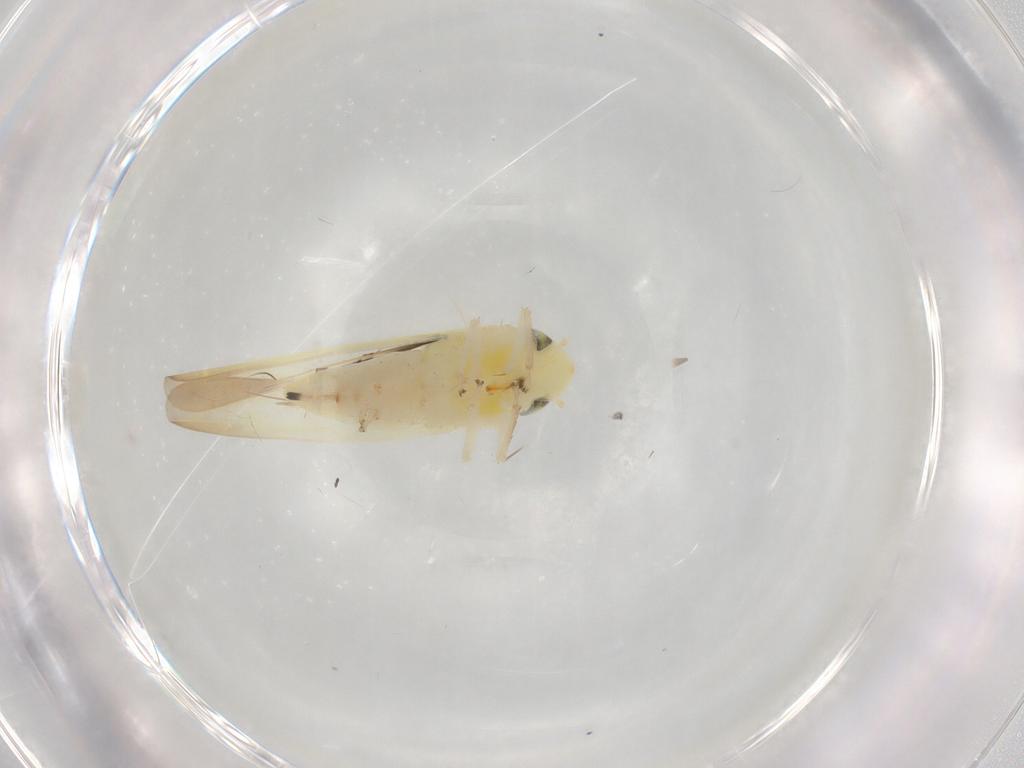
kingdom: Animalia
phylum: Arthropoda
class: Insecta
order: Hemiptera
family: Cicadellidae
